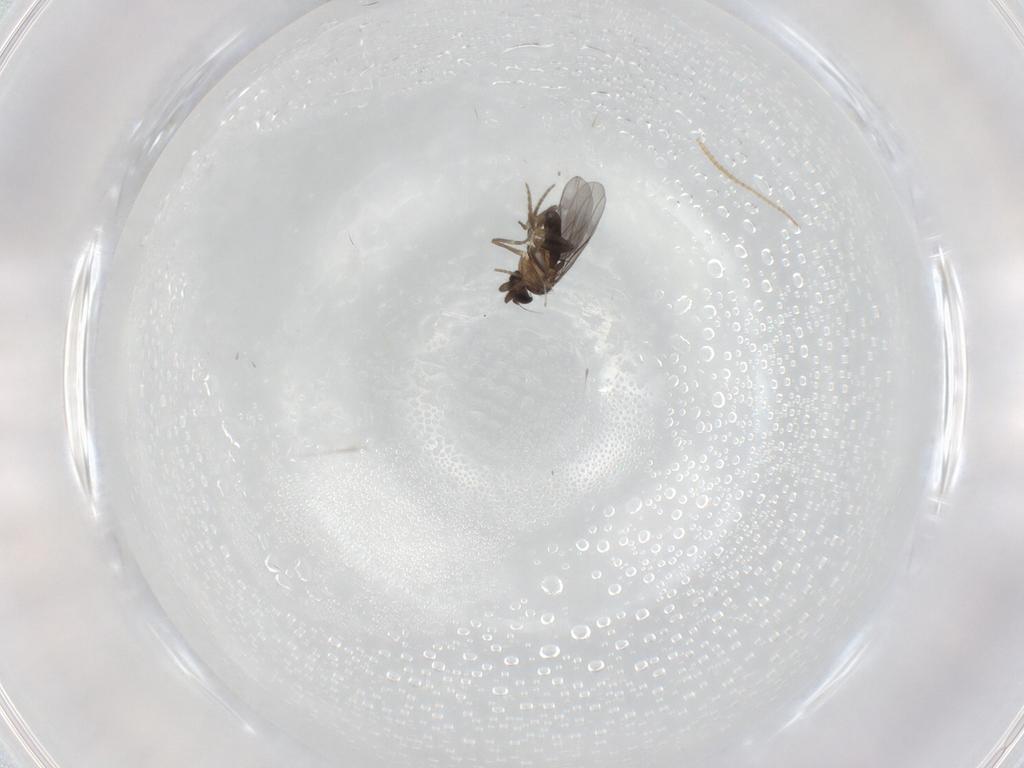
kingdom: Animalia
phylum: Arthropoda
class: Insecta
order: Diptera
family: Cecidomyiidae
